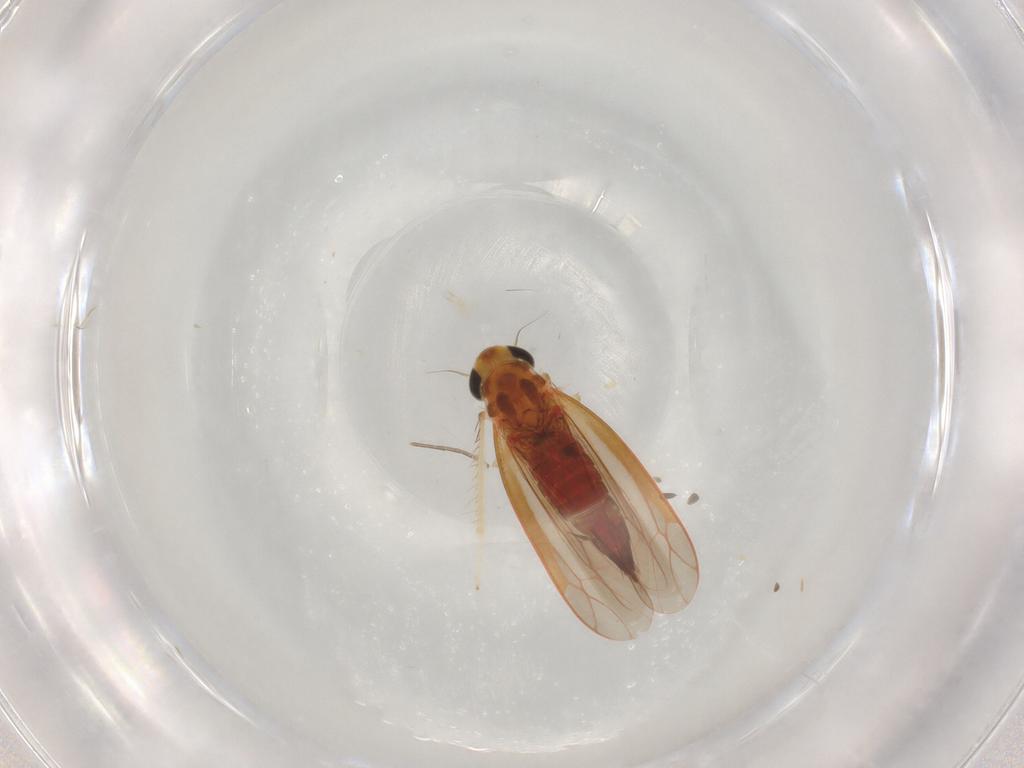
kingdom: Animalia
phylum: Arthropoda
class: Insecta
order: Hemiptera
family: Cicadellidae
